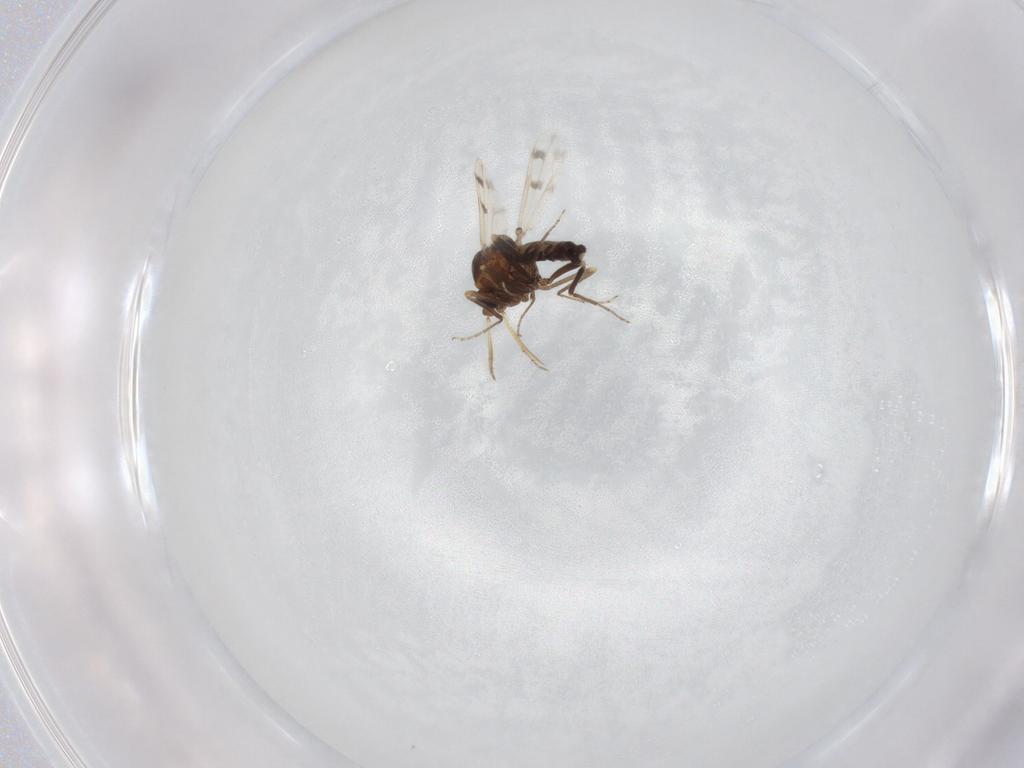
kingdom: Animalia
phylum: Arthropoda
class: Insecta
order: Diptera
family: Ceratopogonidae
